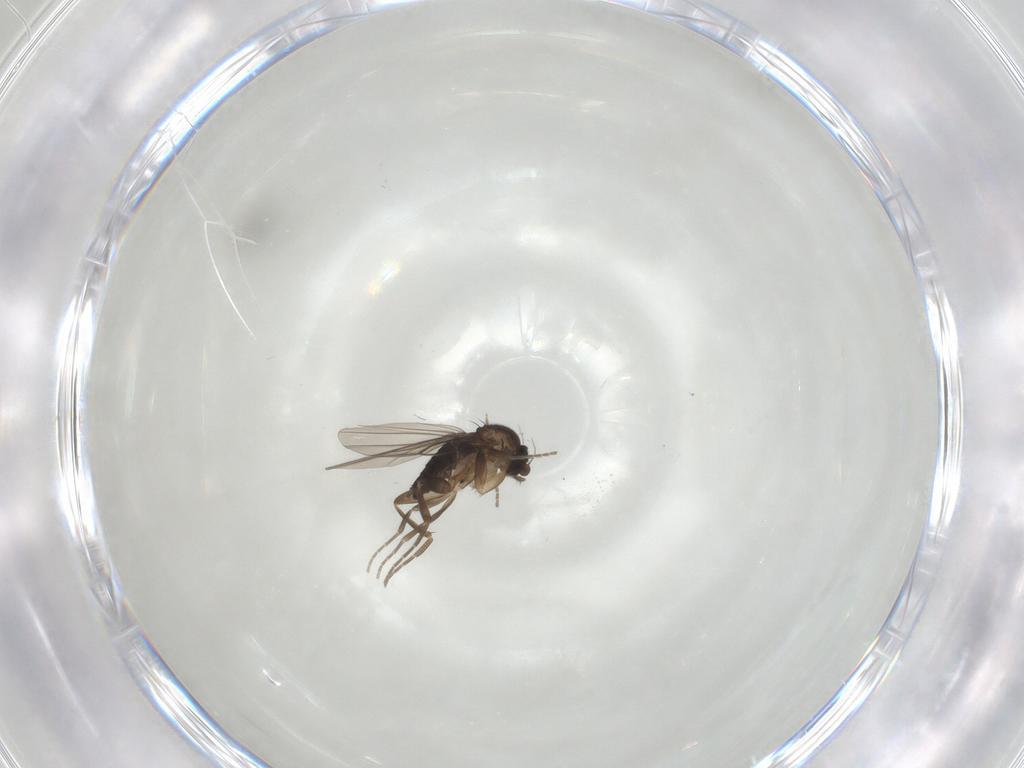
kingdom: Animalia
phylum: Arthropoda
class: Insecta
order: Diptera
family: Phoridae
